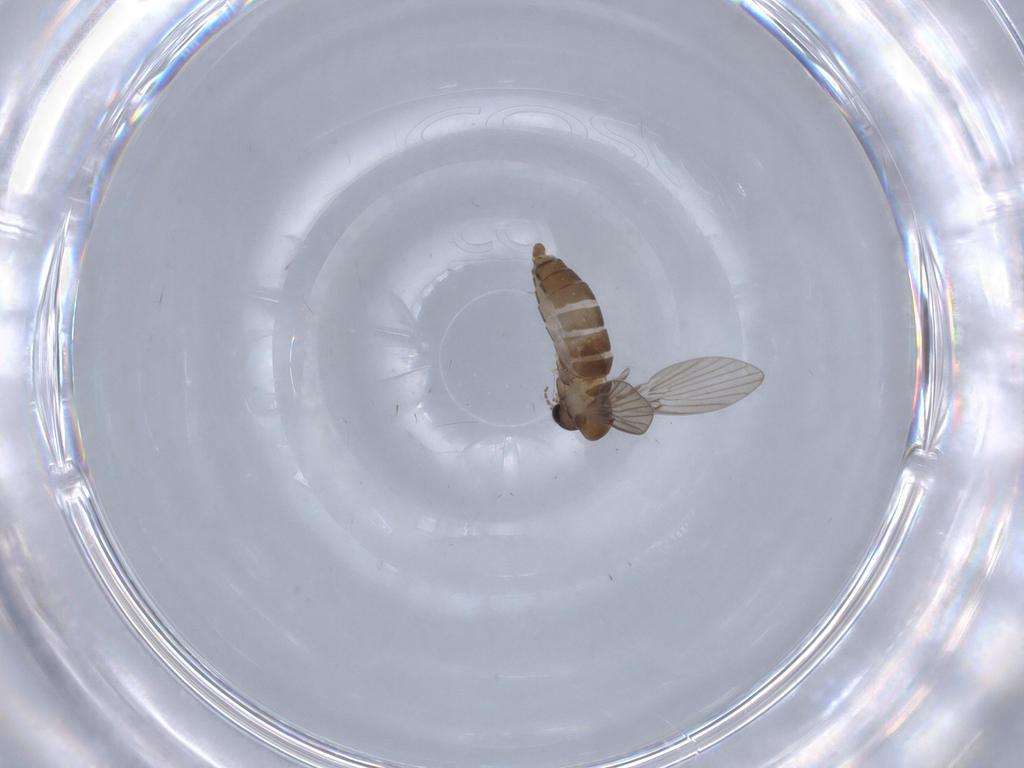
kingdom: Animalia
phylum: Arthropoda
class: Insecta
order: Diptera
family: Psychodidae
